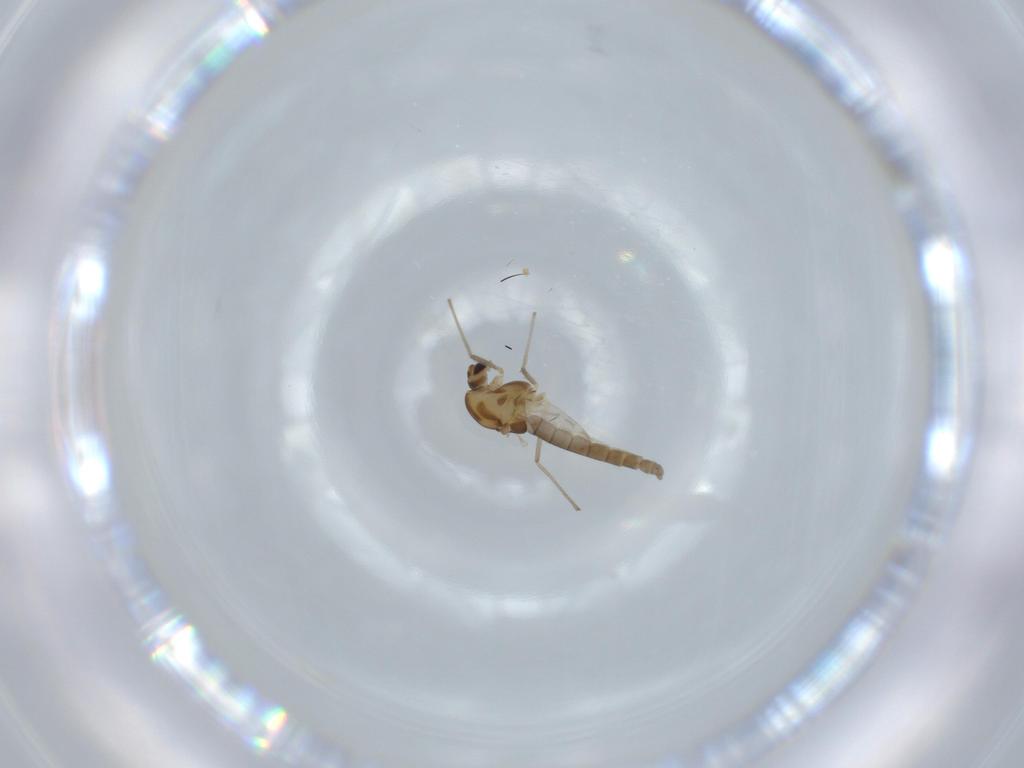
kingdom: Animalia
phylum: Arthropoda
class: Insecta
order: Diptera
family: Chironomidae
